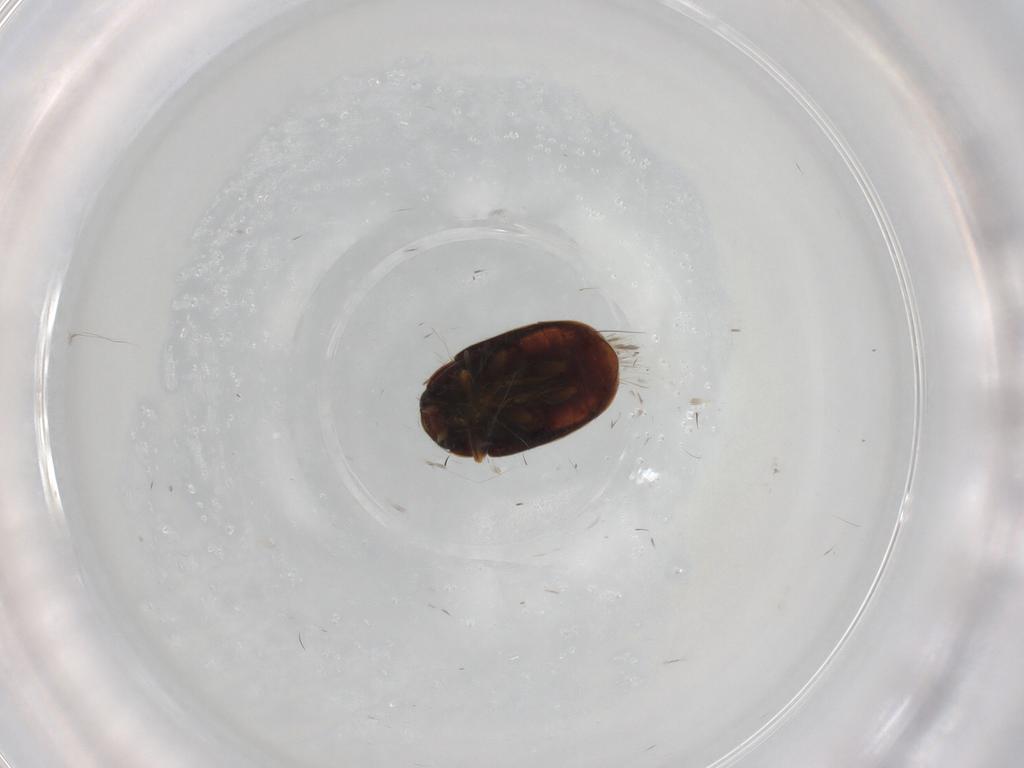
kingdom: Animalia
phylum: Arthropoda
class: Insecta
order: Coleoptera
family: Coccinellidae
